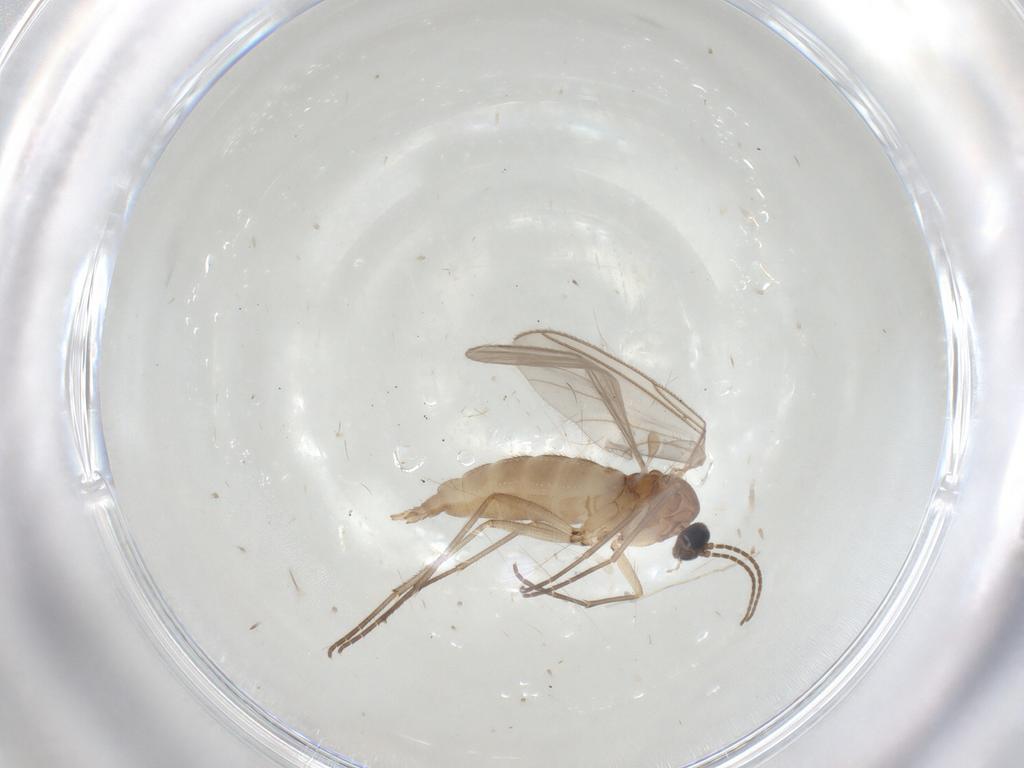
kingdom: Animalia
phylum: Arthropoda
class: Insecta
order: Diptera
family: Sciaridae
